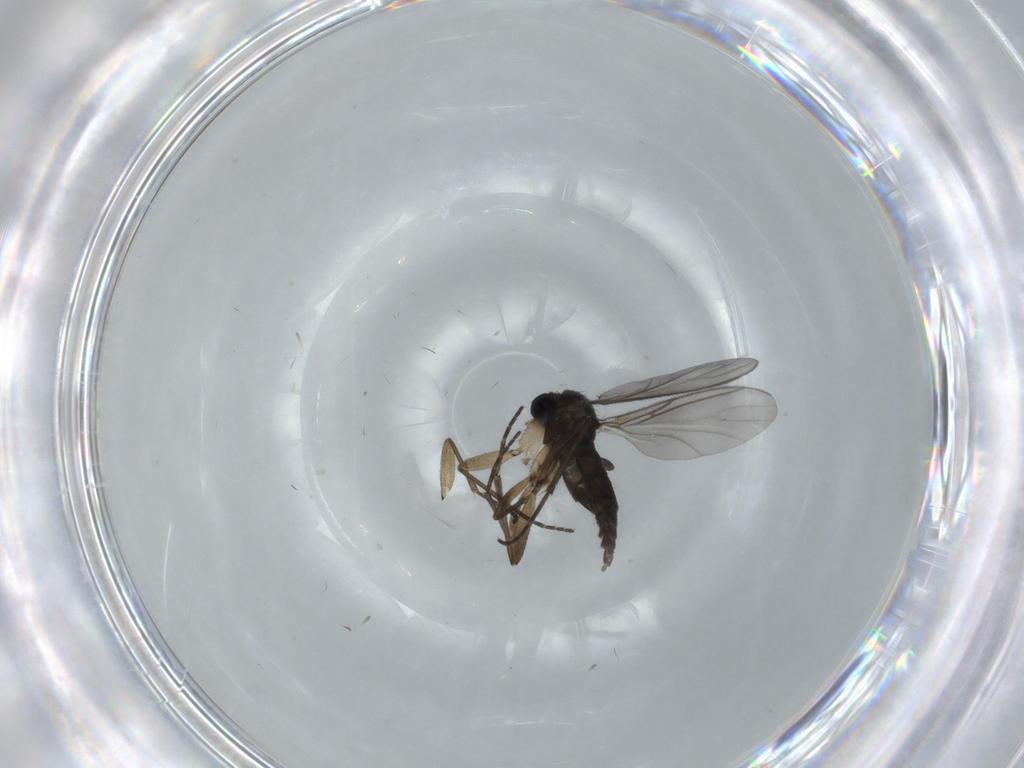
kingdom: Animalia
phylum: Arthropoda
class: Insecta
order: Diptera
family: Sciaridae
